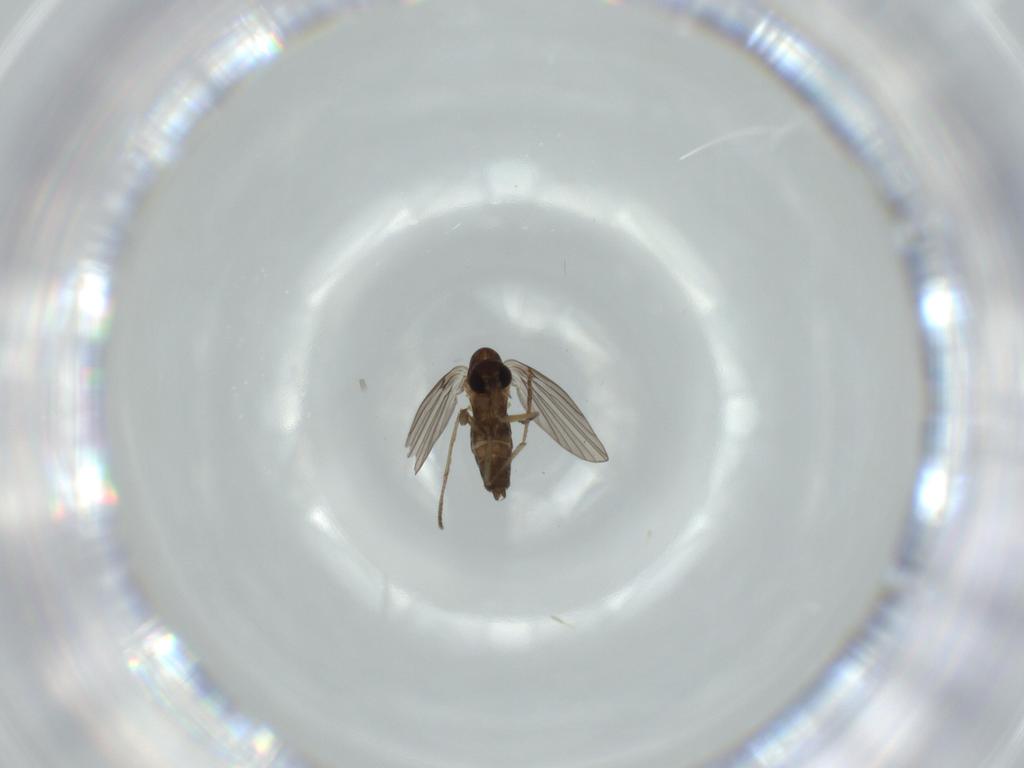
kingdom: Animalia
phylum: Arthropoda
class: Insecta
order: Diptera
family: Psychodidae
